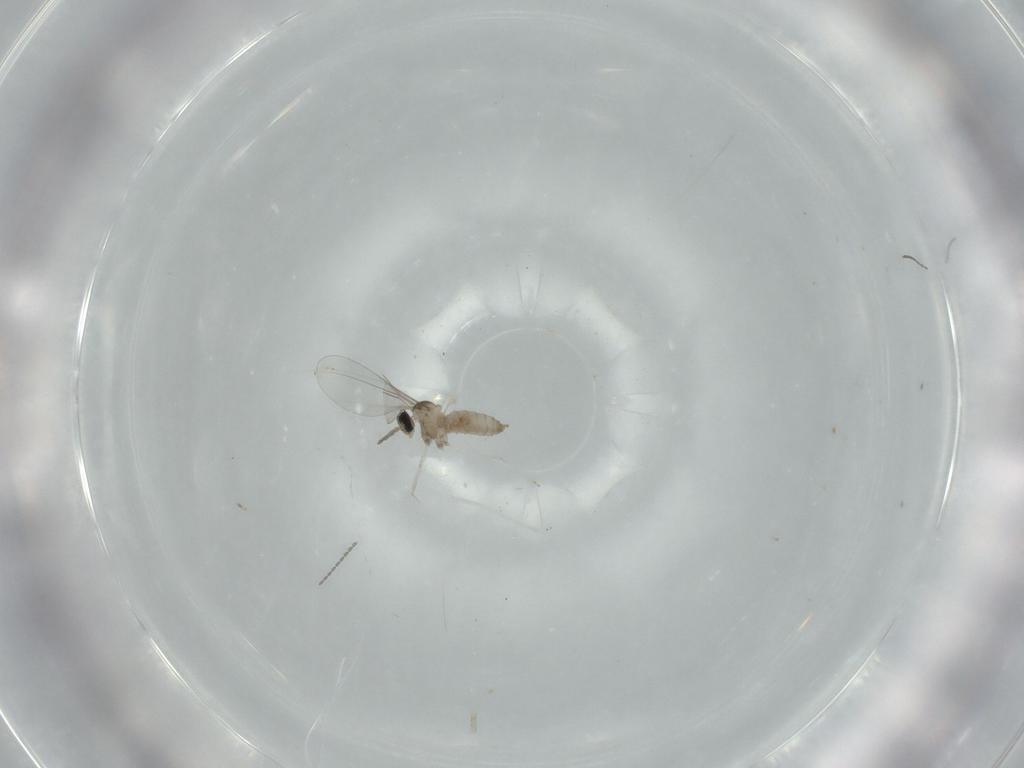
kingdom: Animalia
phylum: Arthropoda
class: Insecta
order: Diptera
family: Cecidomyiidae
